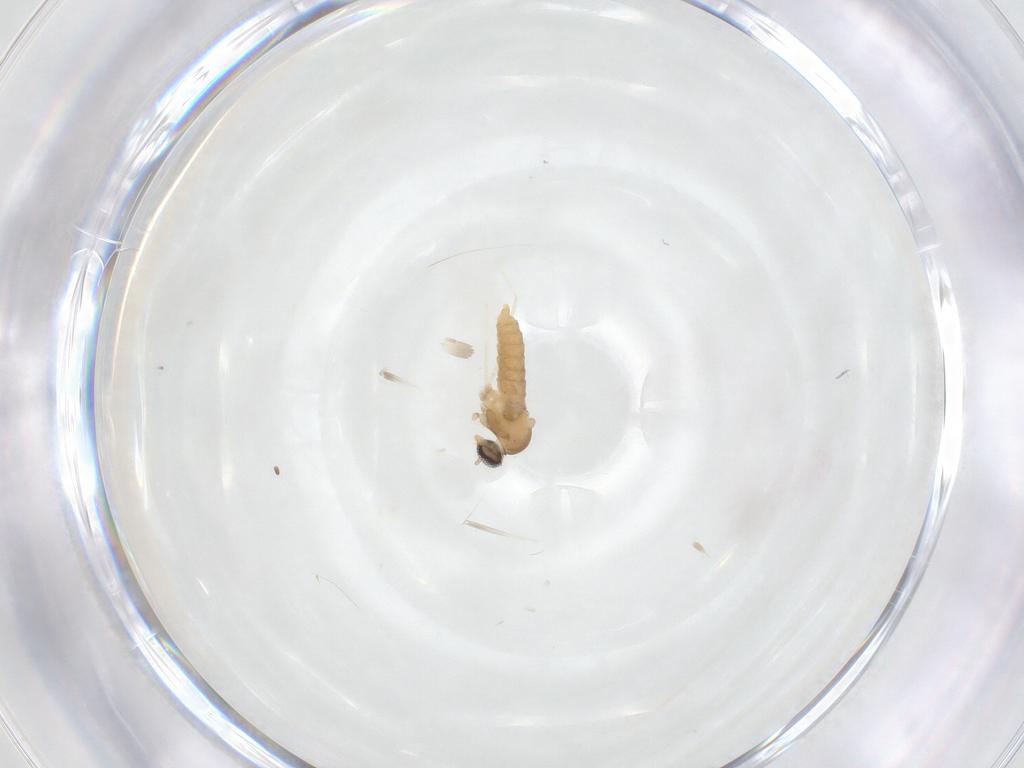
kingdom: Animalia
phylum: Arthropoda
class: Insecta
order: Diptera
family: Cecidomyiidae
